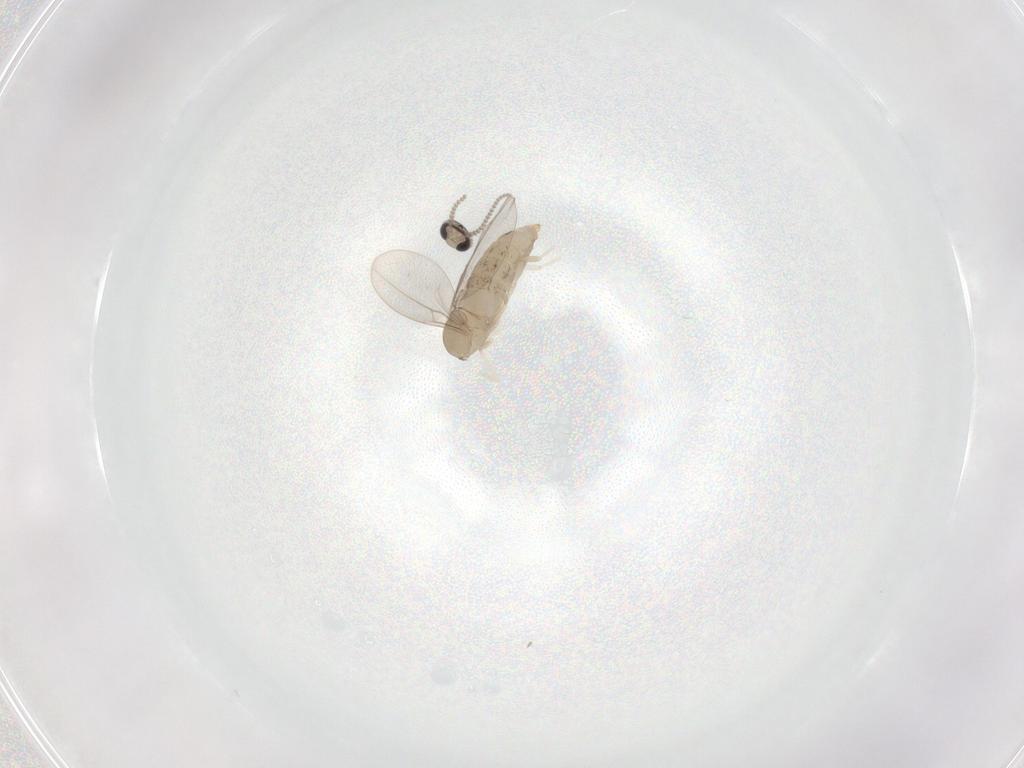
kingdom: Animalia
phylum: Arthropoda
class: Insecta
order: Diptera
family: Cecidomyiidae
